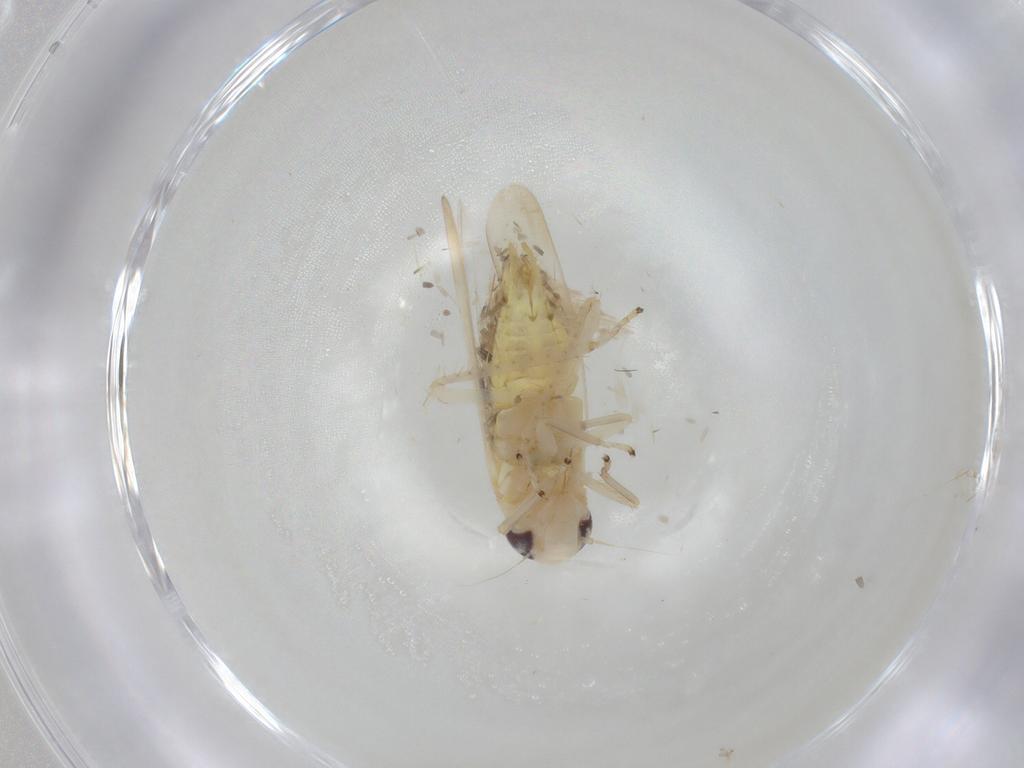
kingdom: Animalia
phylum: Arthropoda
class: Insecta
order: Hemiptera
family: Cicadellidae
